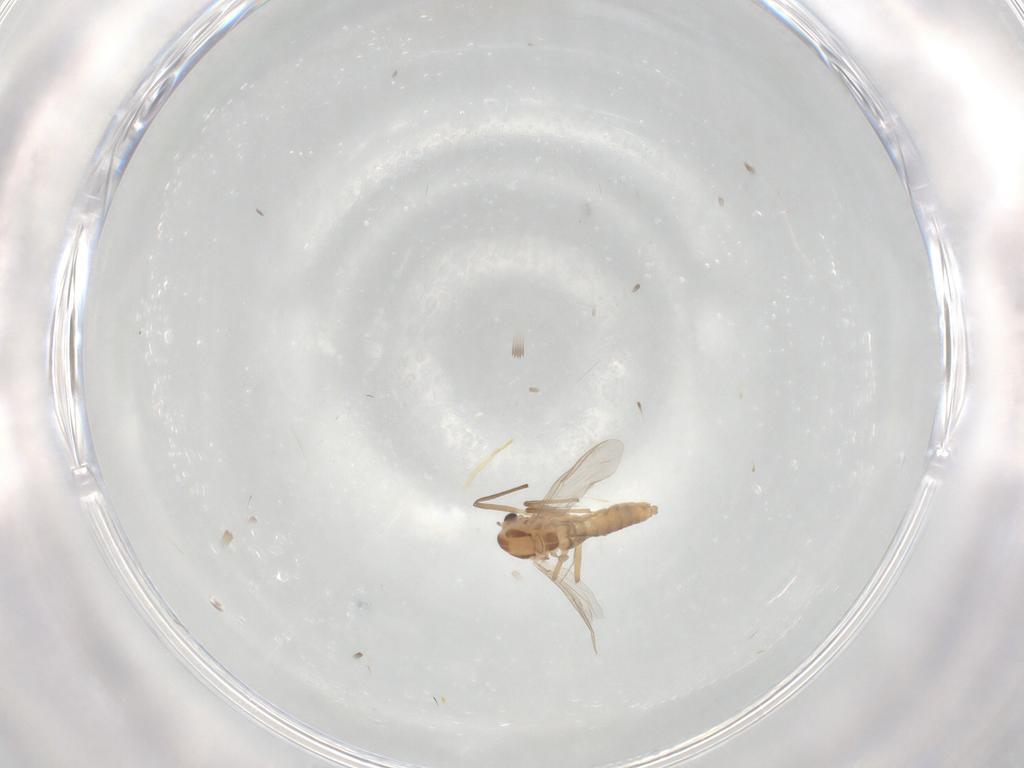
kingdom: Animalia
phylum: Arthropoda
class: Insecta
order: Diptera
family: Chironomidae
